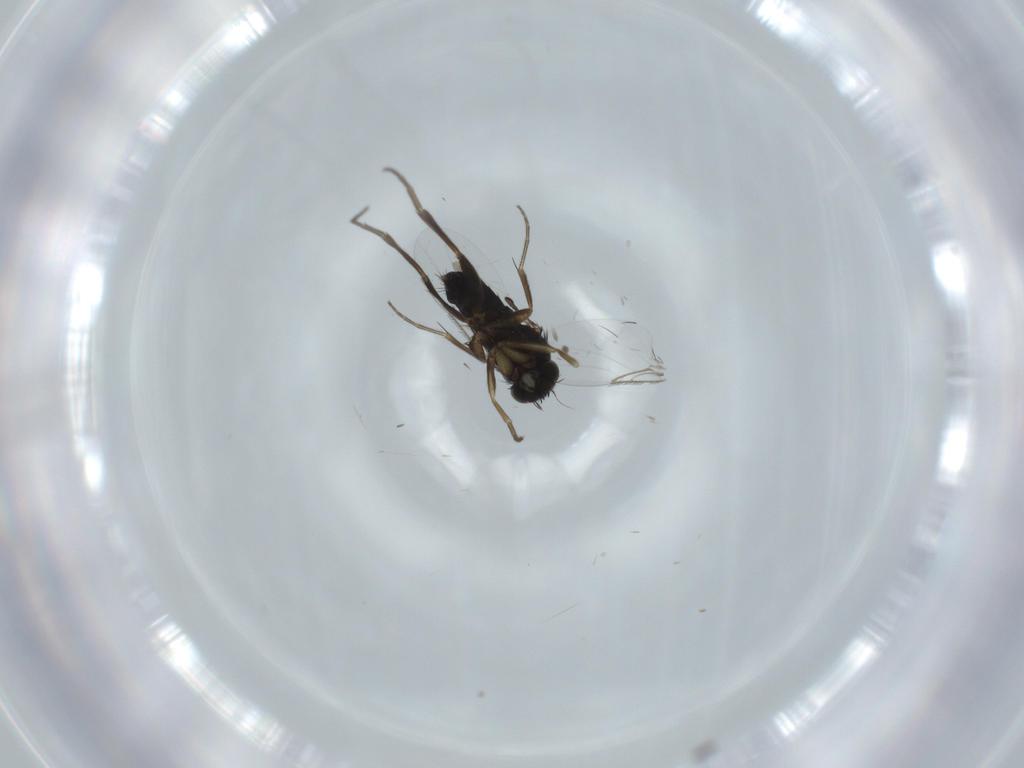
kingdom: Animalia
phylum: Arthropoda
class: Insecta
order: Diptera
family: Phoridae
